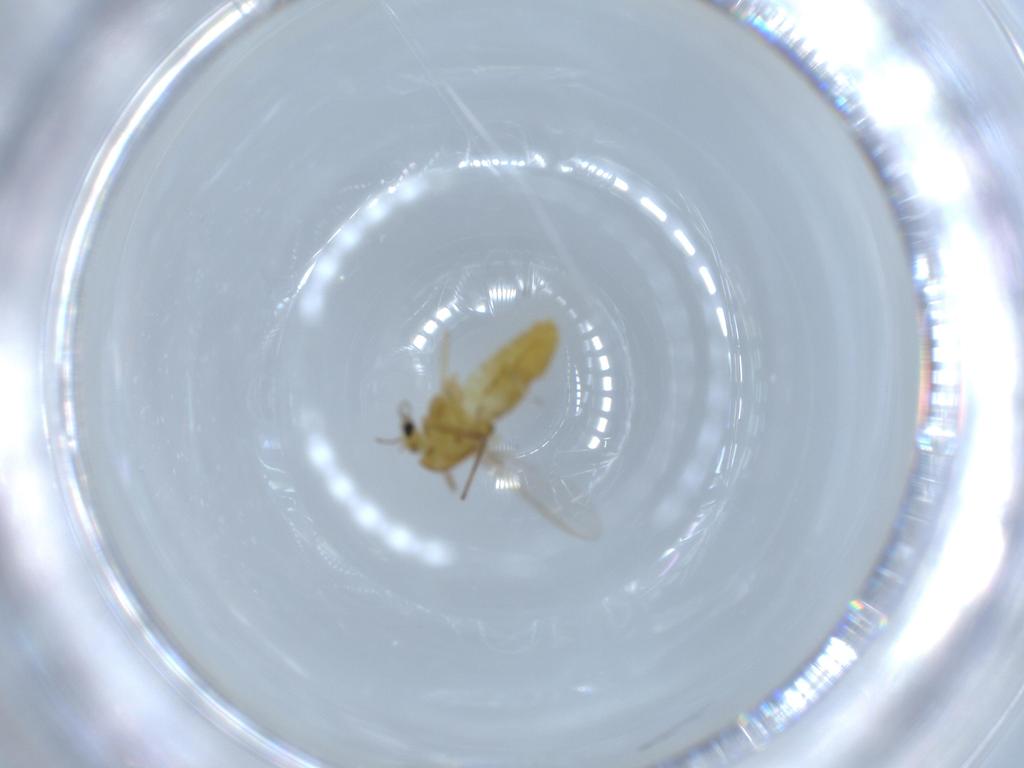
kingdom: Animalia
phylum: Arthropoda
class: Insecta
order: Diptera
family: Chironomidae
